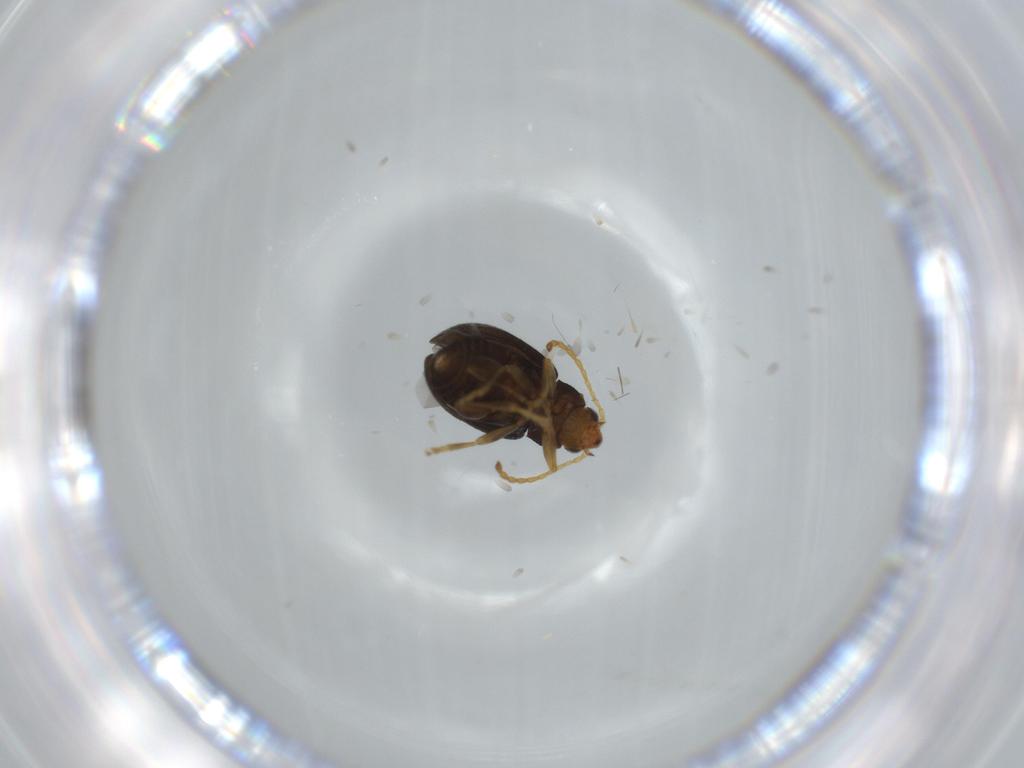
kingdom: Animalia
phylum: Arthropoda
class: Insecta
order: Coleoptera
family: Chrysomelidae
